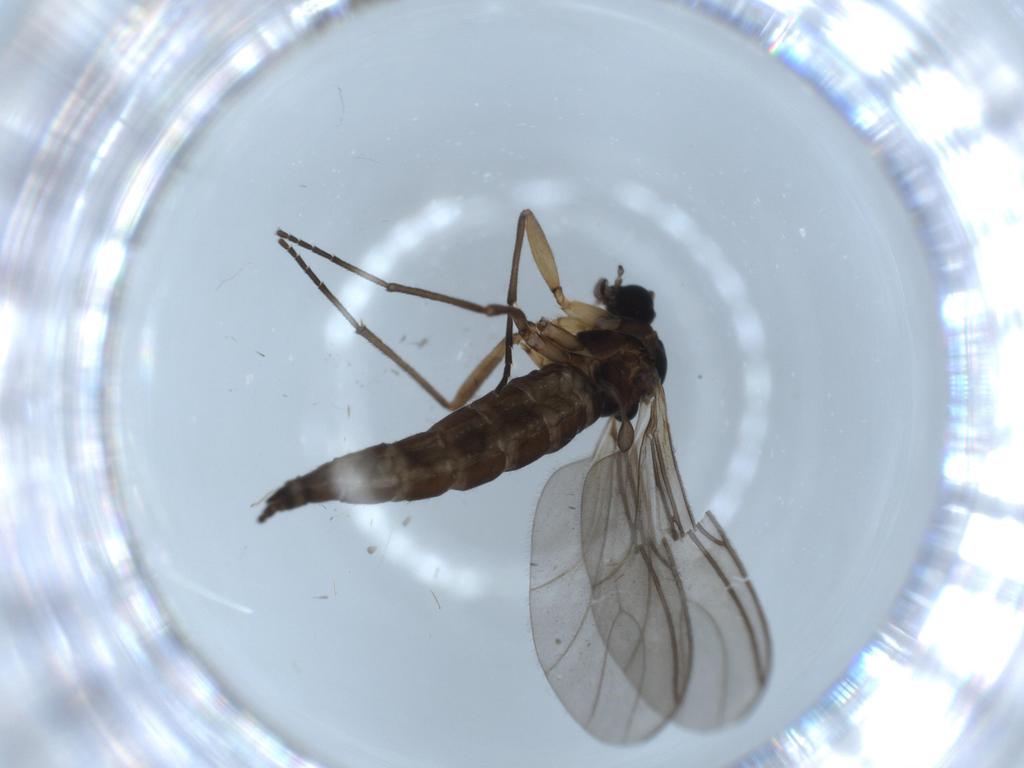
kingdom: Animalia
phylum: Arthropoda
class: Insecta
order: Diptera
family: Sciaridae
